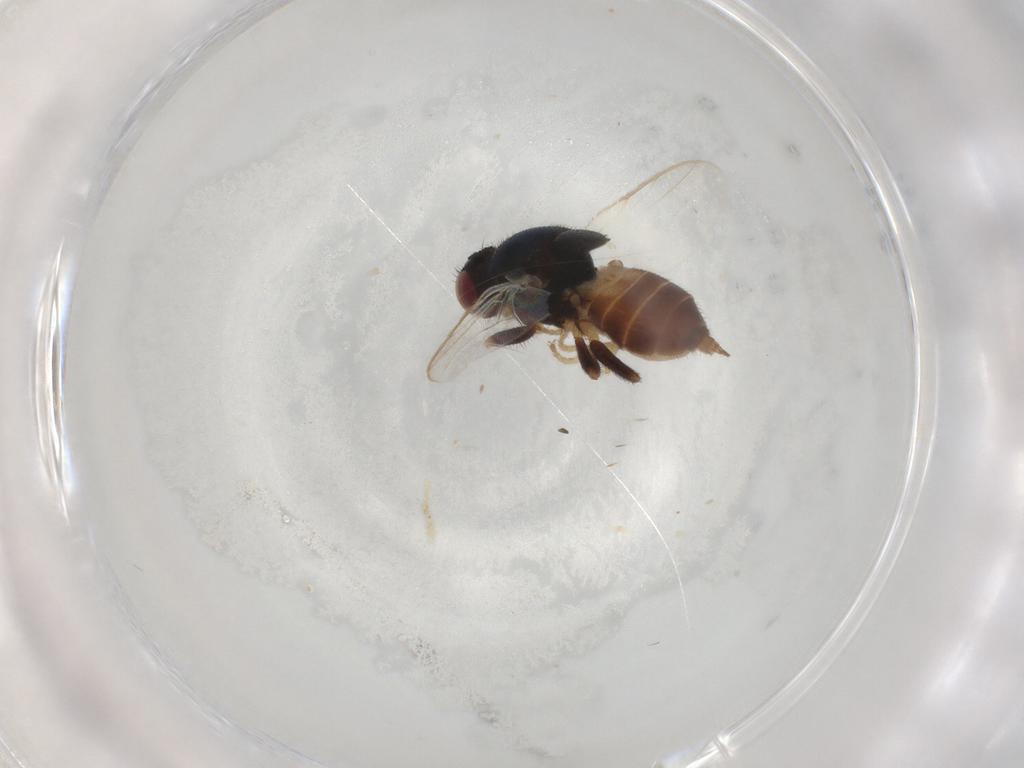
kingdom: Animalia
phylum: Arthropoda
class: Insecta
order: Diptera
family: Chloropidae
